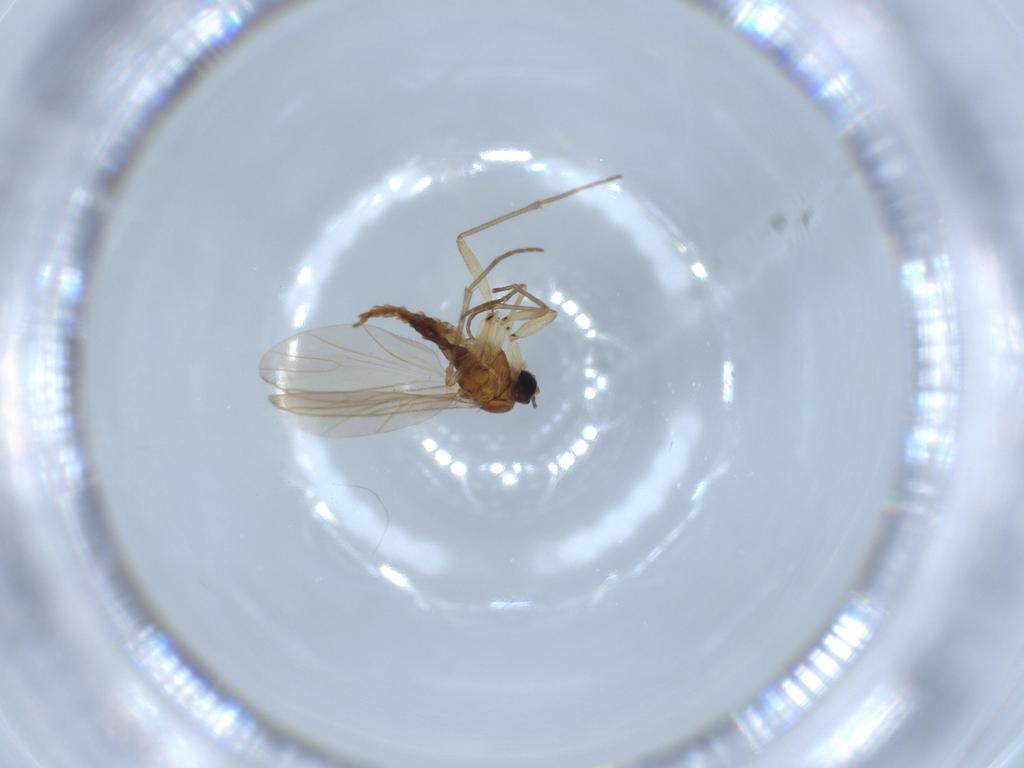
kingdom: Animalia
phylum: Arthropoda
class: Insecta
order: Diptera
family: Sciaridae
